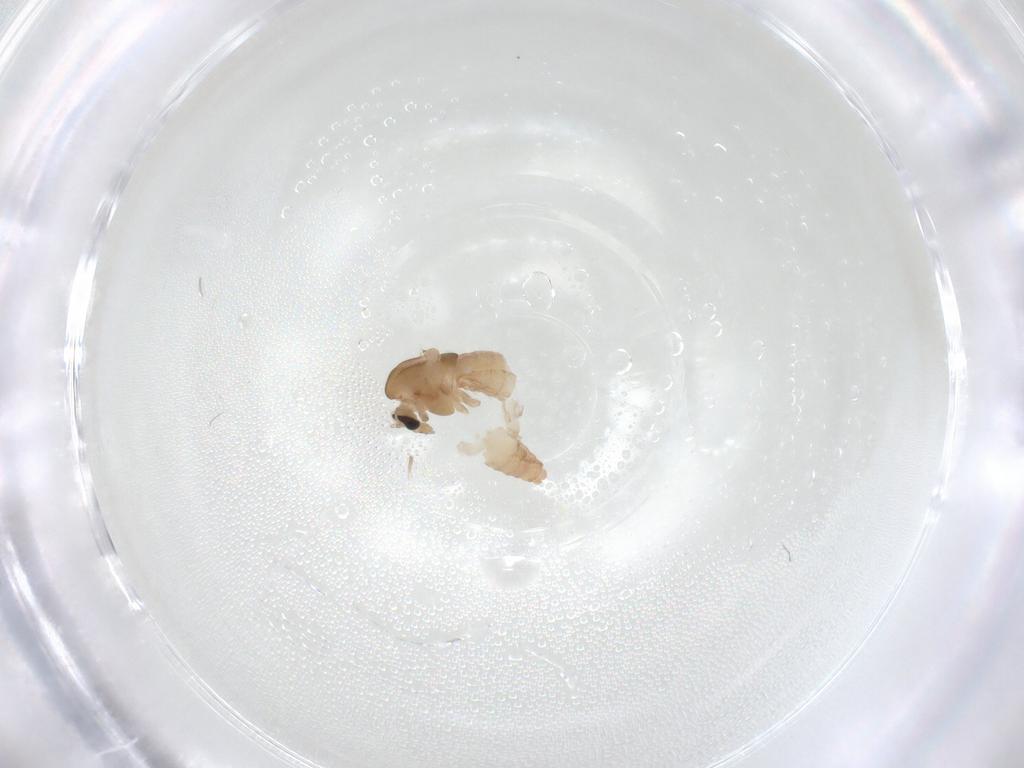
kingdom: Animalia
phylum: Arthropoda
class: Insecta
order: Diptera
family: Chironomidae
